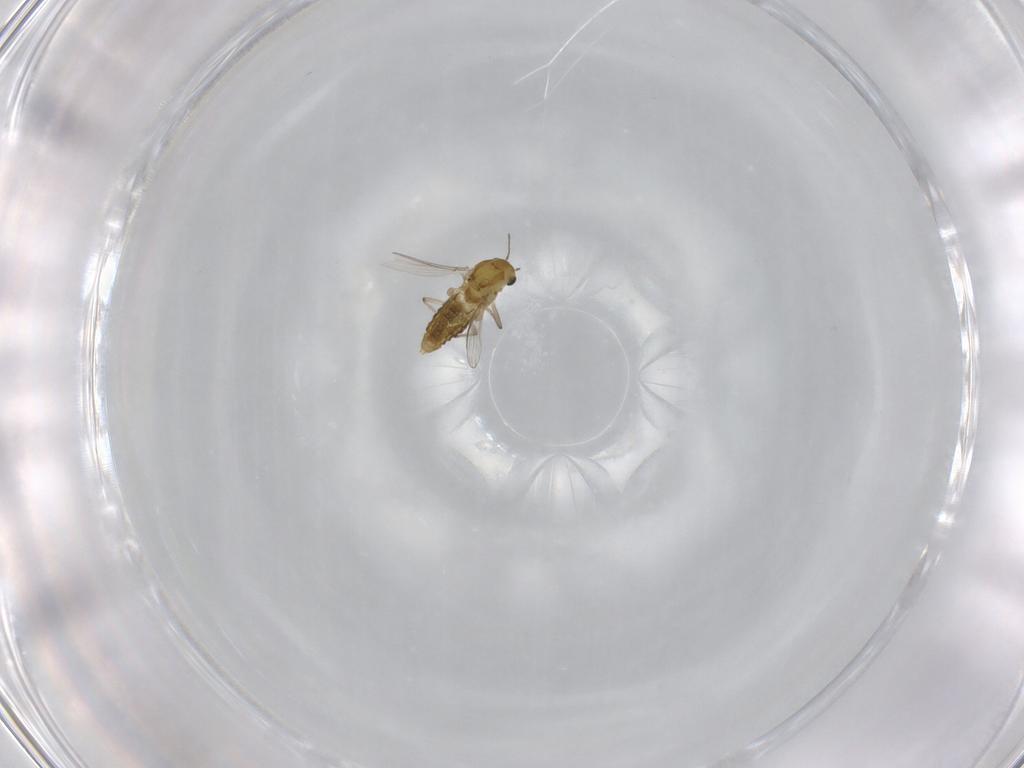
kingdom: Animalia
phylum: Arthropoda
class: Insecta
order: Diptera
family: Chironomidae
